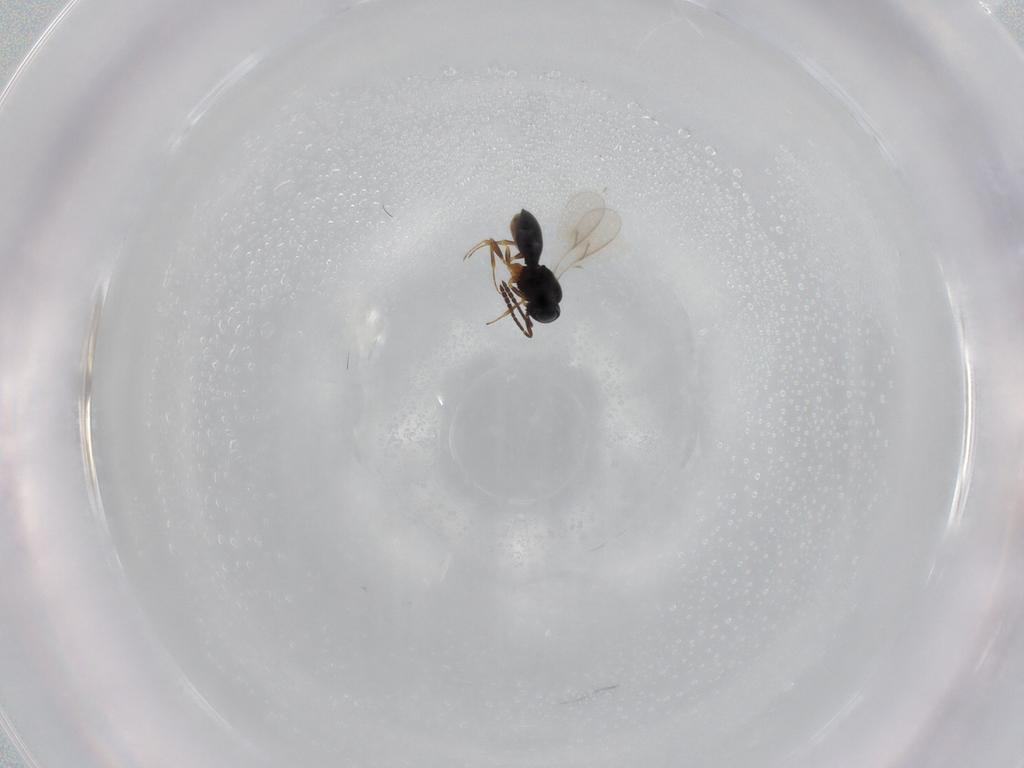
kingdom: Animalia
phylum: Arthropoda
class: Insecta
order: Hymenoptera
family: Scelionidae
